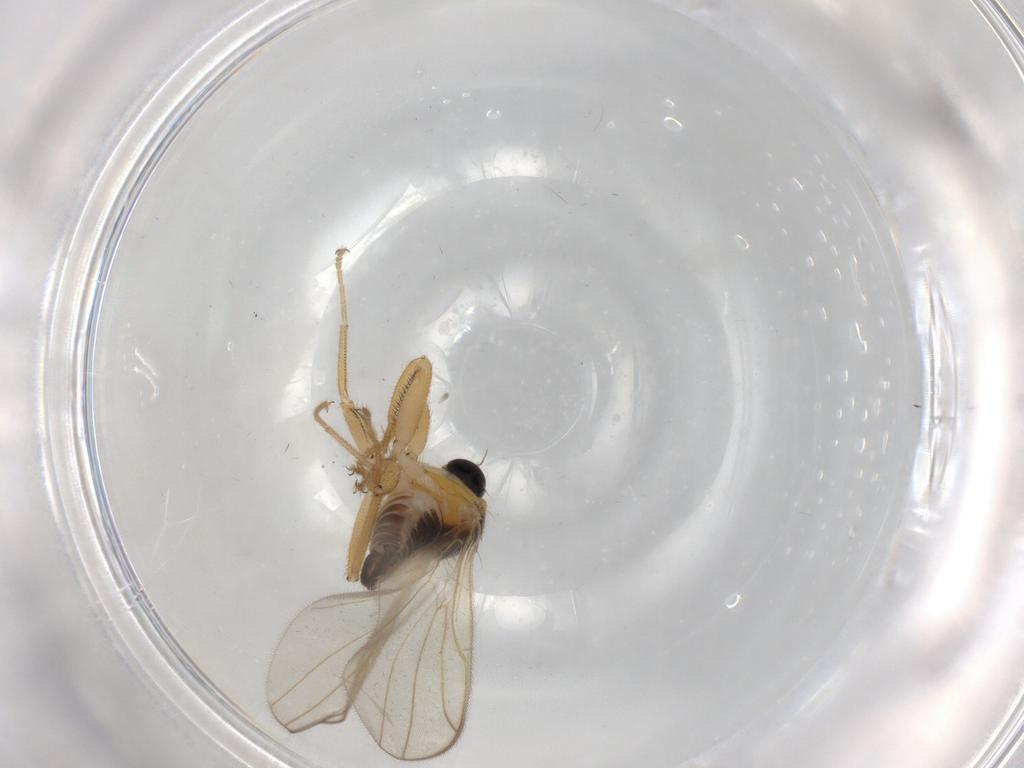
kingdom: Animalia
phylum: Arthropoda
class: Insecta
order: Diptera
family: Hybotidae
